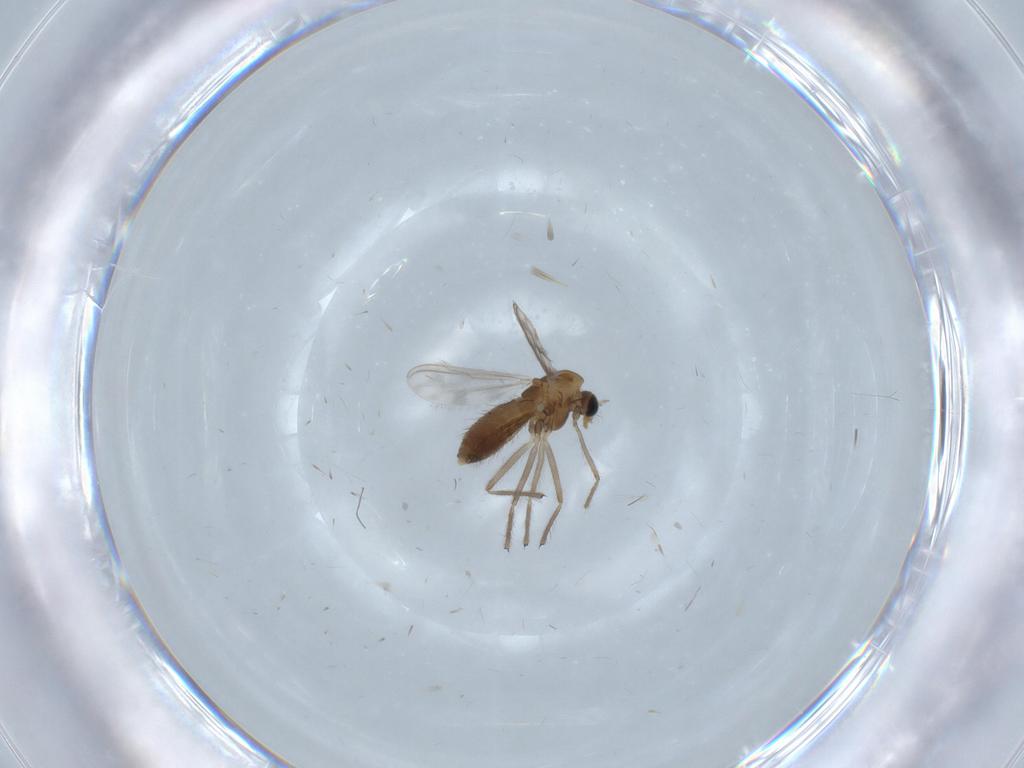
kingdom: Animalia
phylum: Arthropoda
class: Insecta
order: Diptera
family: Chironomidae
